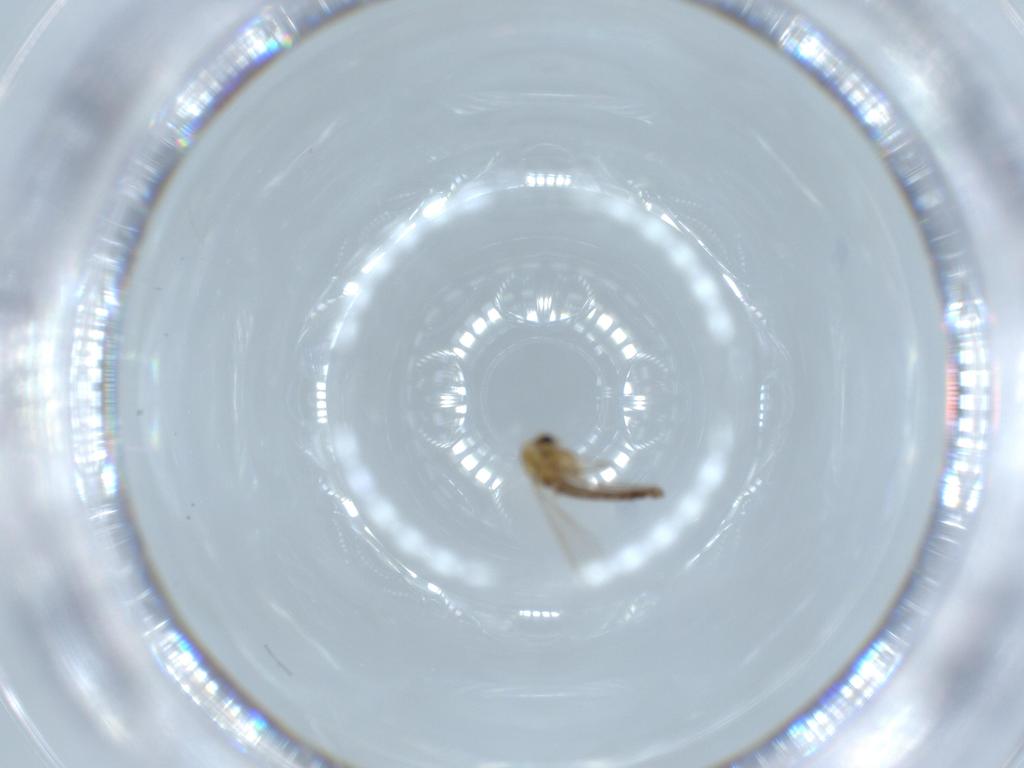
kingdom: Animalia
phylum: Arthropoda
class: Insecta
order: Diptera
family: Chironomidae
